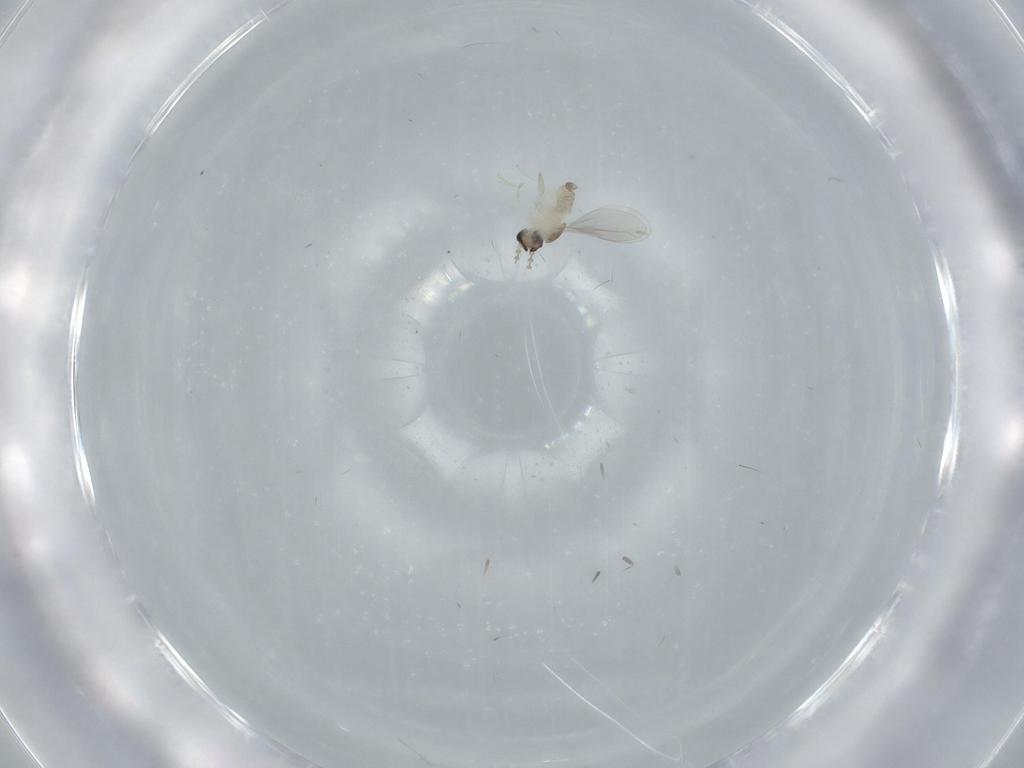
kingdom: Animalia
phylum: Arthropoda
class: Insecta
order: Diptera
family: Cecidomyiidae
